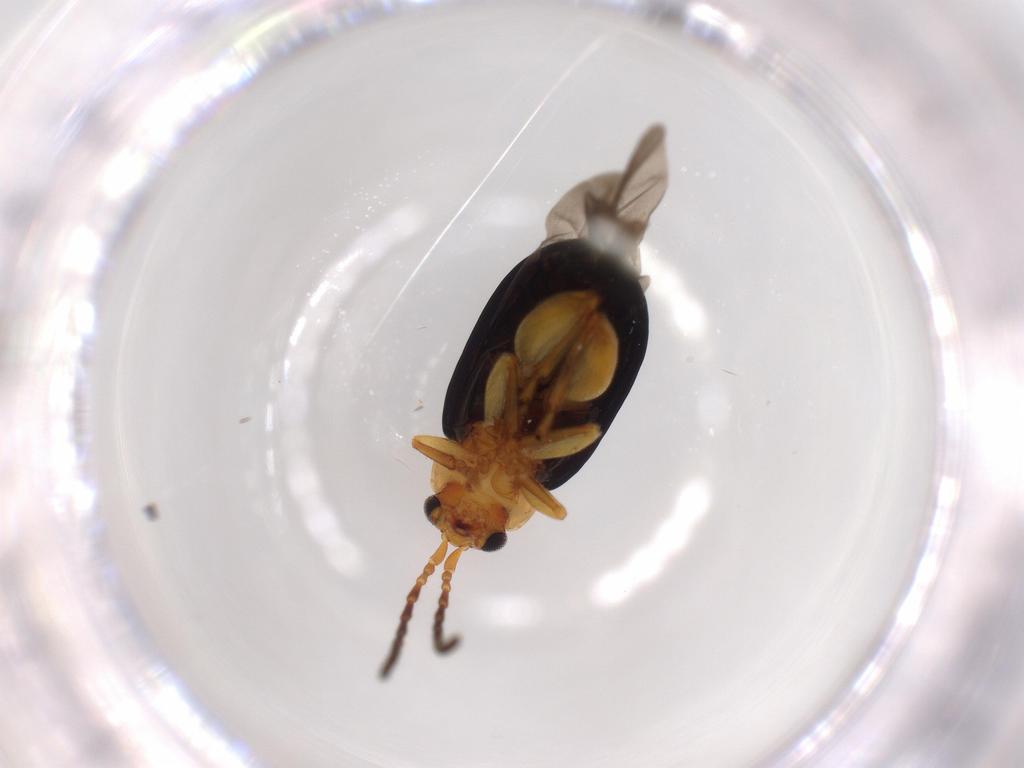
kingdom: Animalia
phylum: Arthropoda
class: Insecta
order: Coleoptera
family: Chrysomelidae
